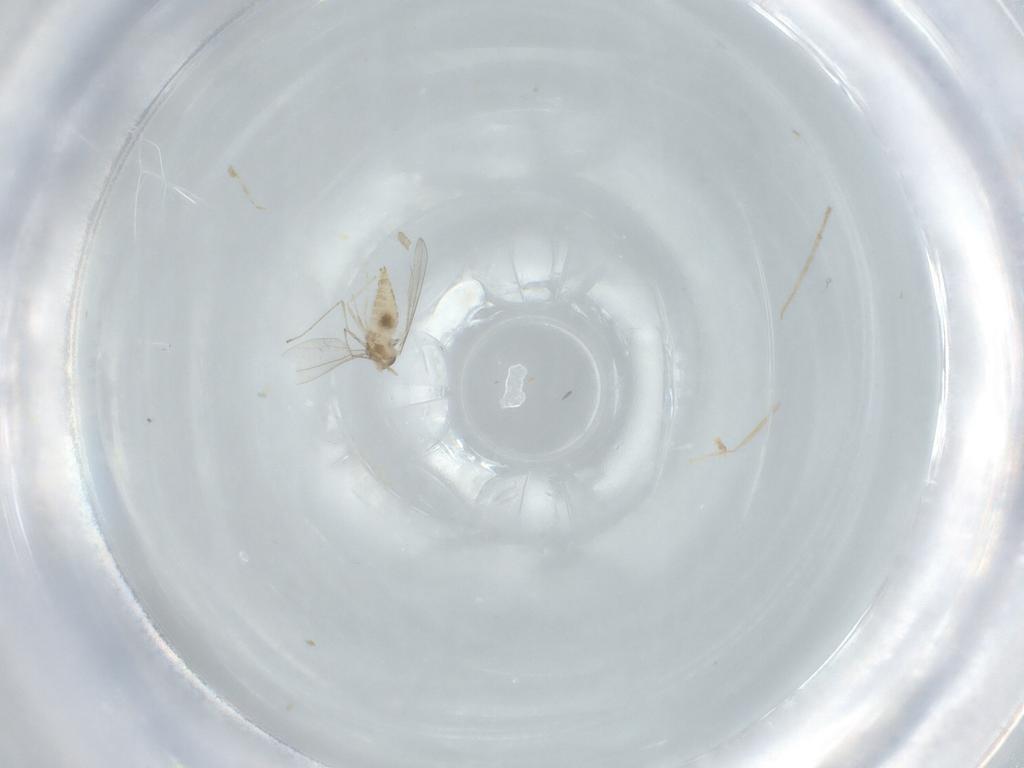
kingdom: Animalia
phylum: Arthropoda
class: Insecta
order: Diptera
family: Cecidomyiidae
